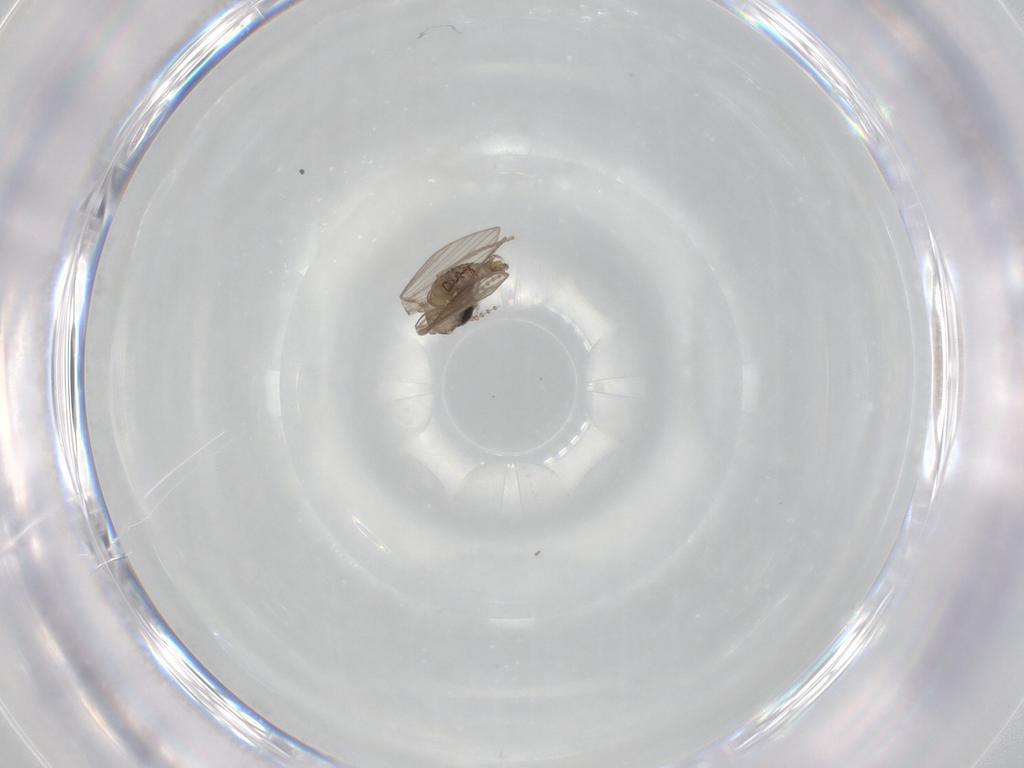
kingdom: Animalia
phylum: Arthropoda
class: Insecta
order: Diptera
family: Psychodidae
